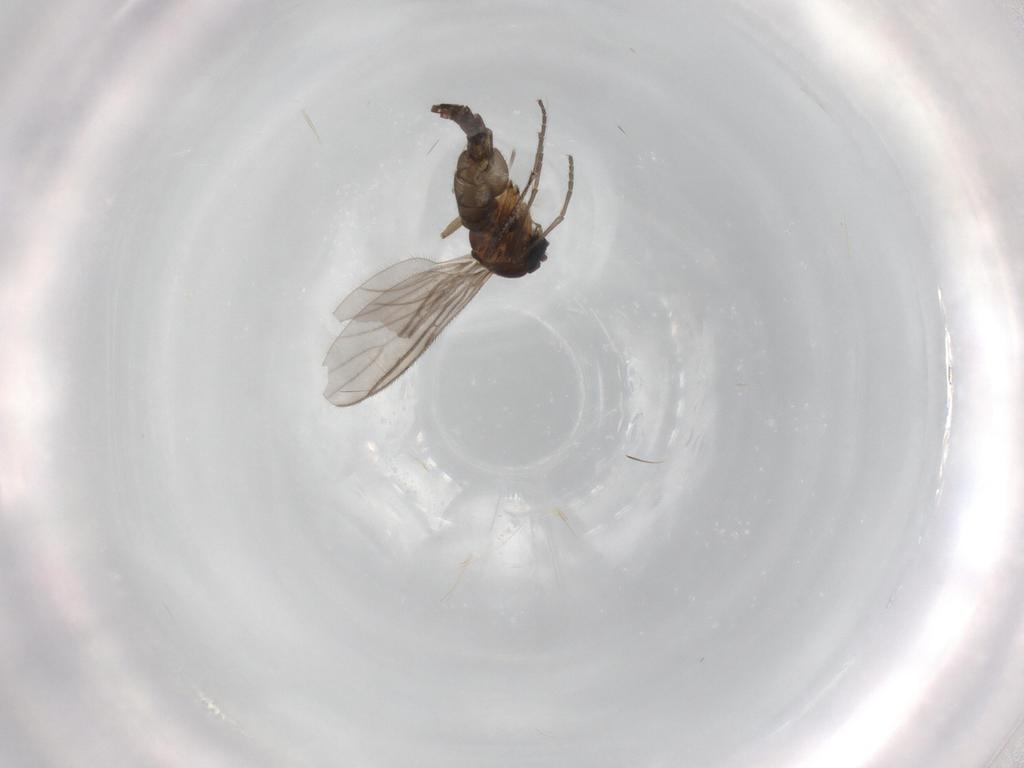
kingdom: Animalia
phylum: Arthropoda
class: Insecta
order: Diptera
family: Sciaridae
